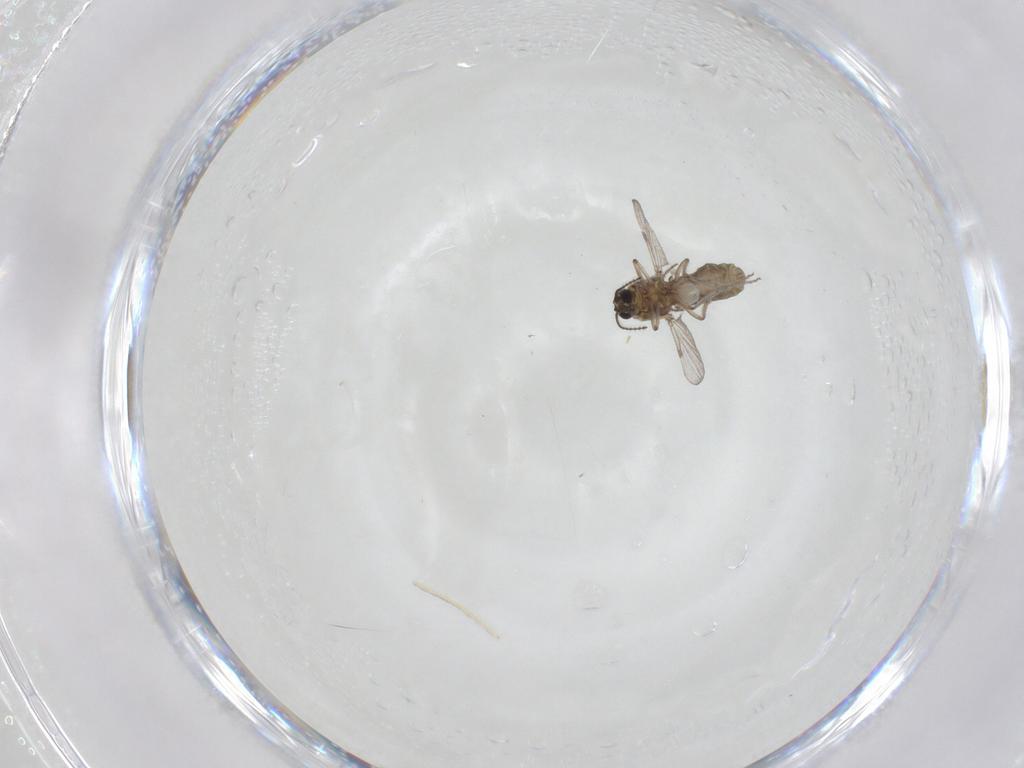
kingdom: Animalia
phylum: Arthropoda
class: Insecta
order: Diptera
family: Ceratopogonidae
